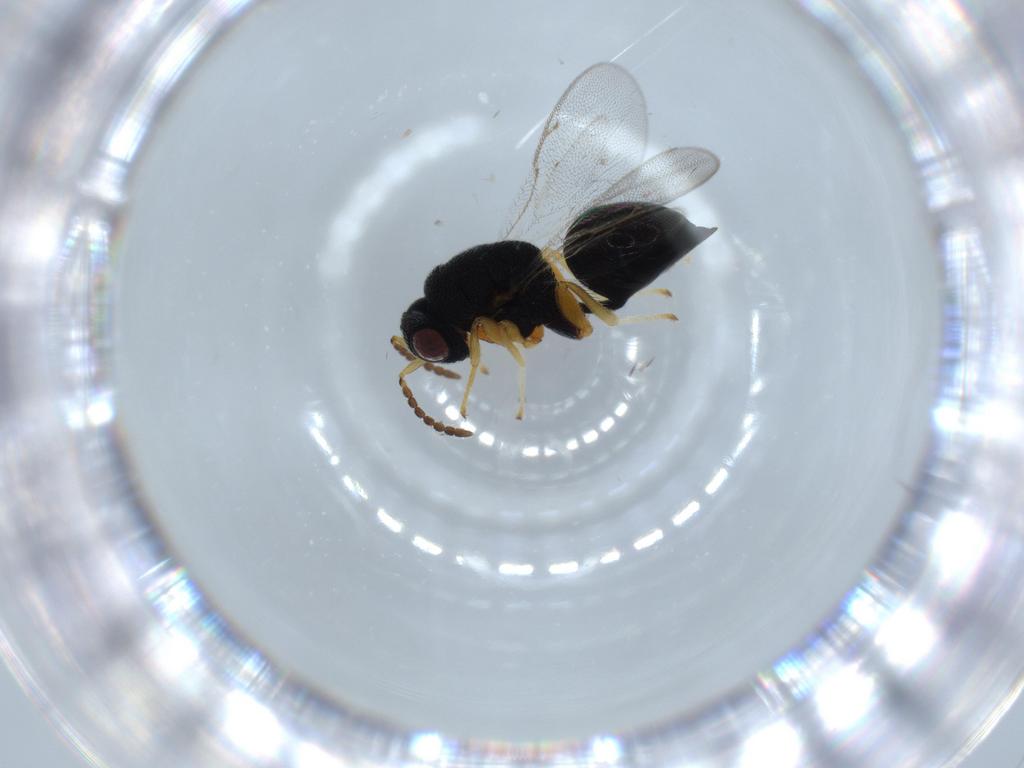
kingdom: Animalia
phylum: Arthropoda
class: Insecta
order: Hymenoptera
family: Eurytomidae
